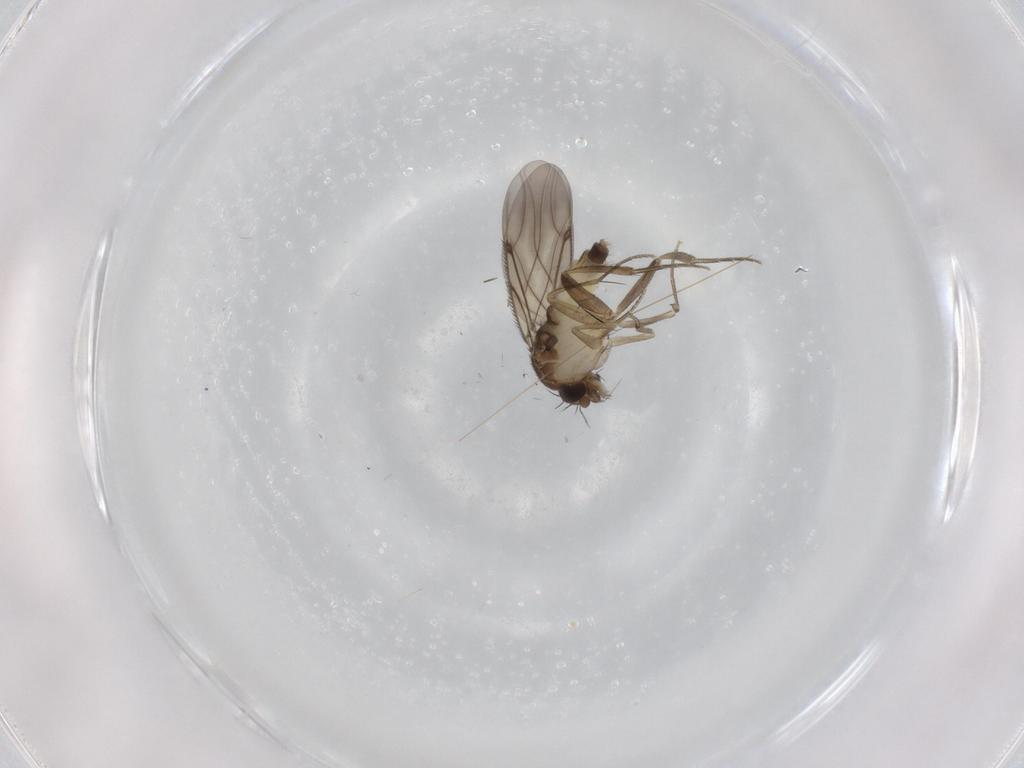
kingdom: Animalia
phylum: Arthropoda
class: Insecta
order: Diptera
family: Phoridae
